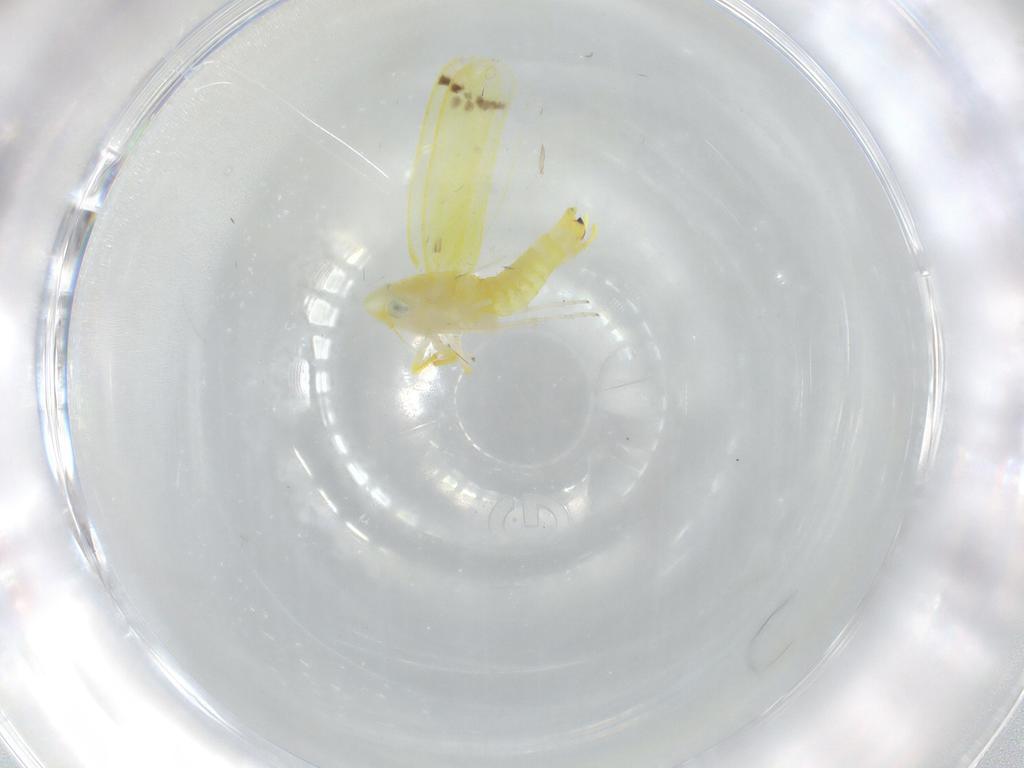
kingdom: Animalia
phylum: Arthropoda
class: Insecta
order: Hemiptera
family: Cicadellidae
